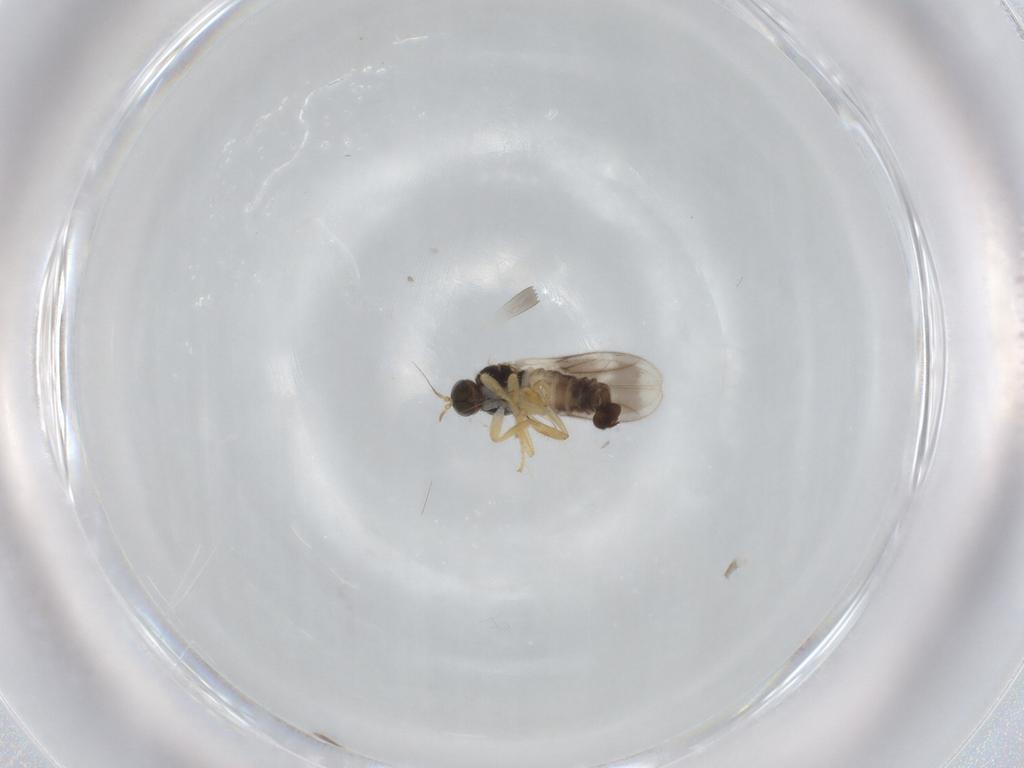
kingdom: Animalia
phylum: Arthropoda
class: Insecta
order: Diptera
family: Hybotidae
